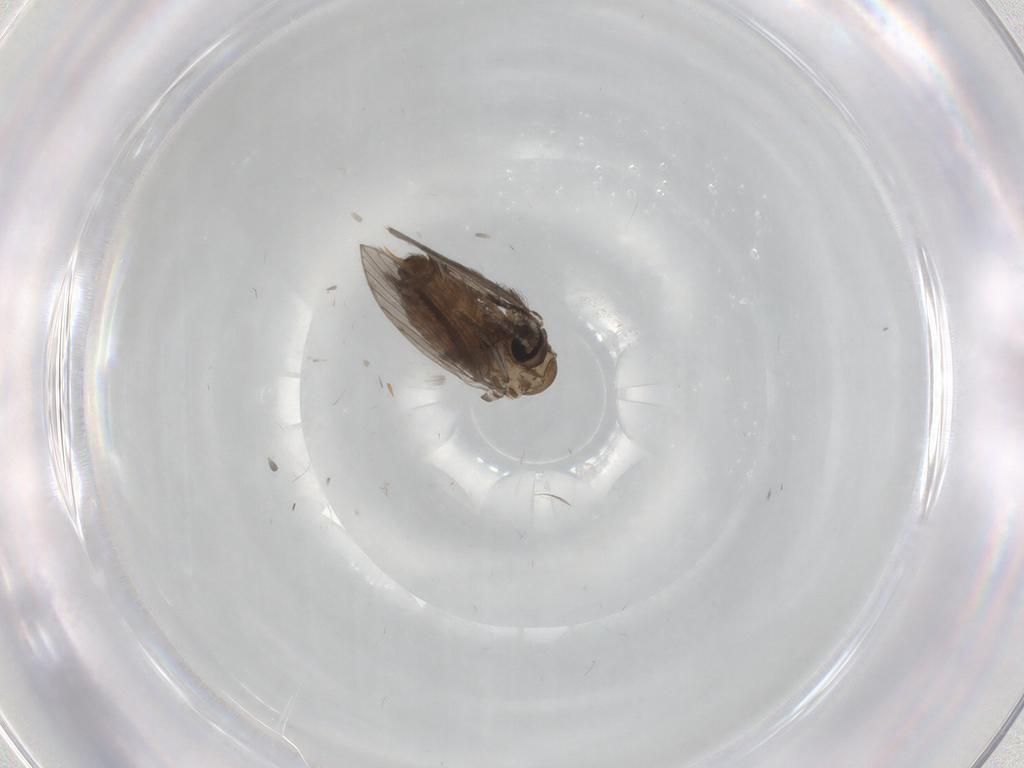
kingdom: Animalia
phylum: Arthropoda
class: Insecta
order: Diptera
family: Psychodidae
